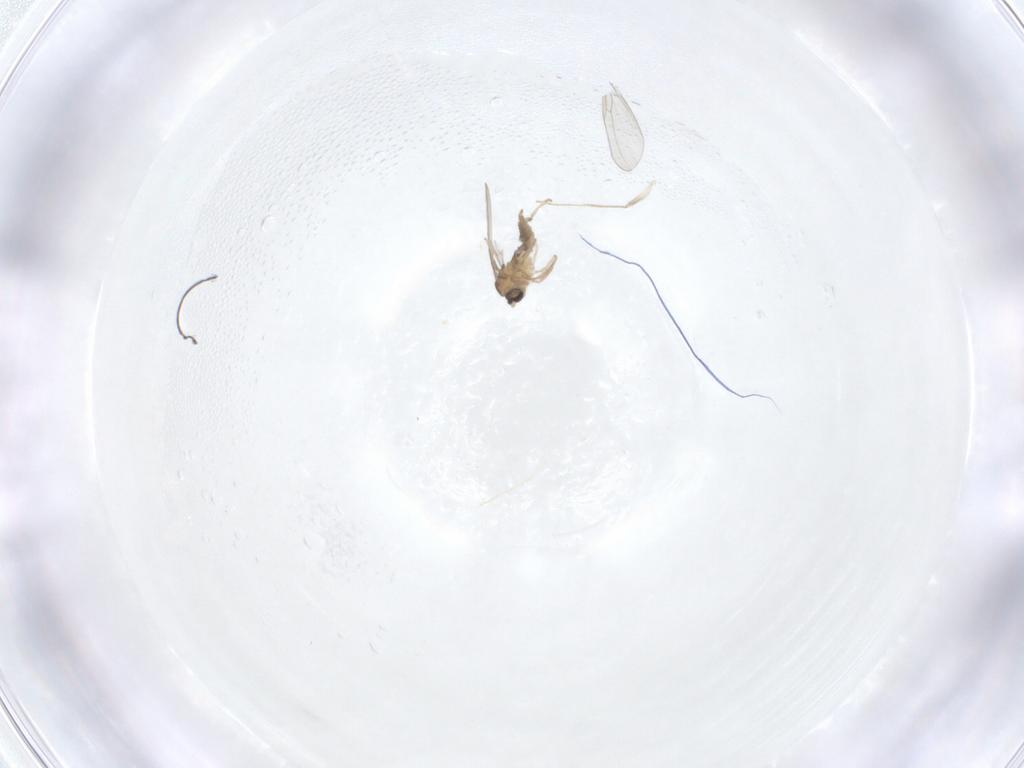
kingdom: Animalia
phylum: Arthropoda
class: Insecta
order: Diptera
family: Cecidomyiidae
